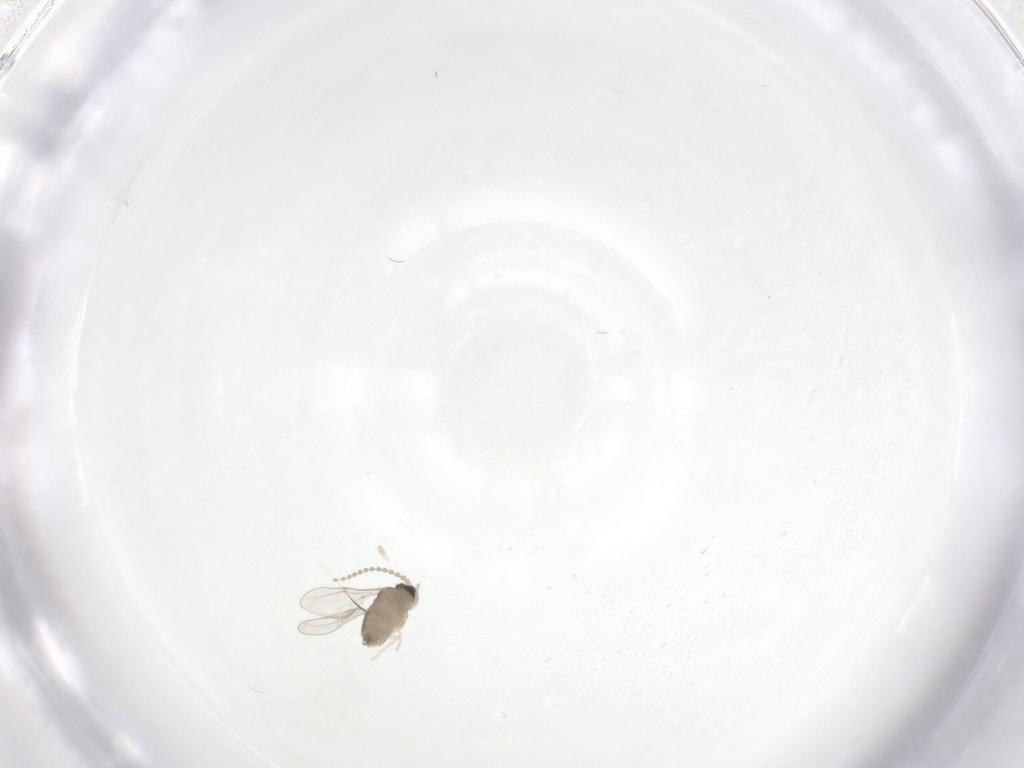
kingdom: Animalia
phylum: Arthropoda
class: Insecta
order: Diptera
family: Cecidomyiidae
